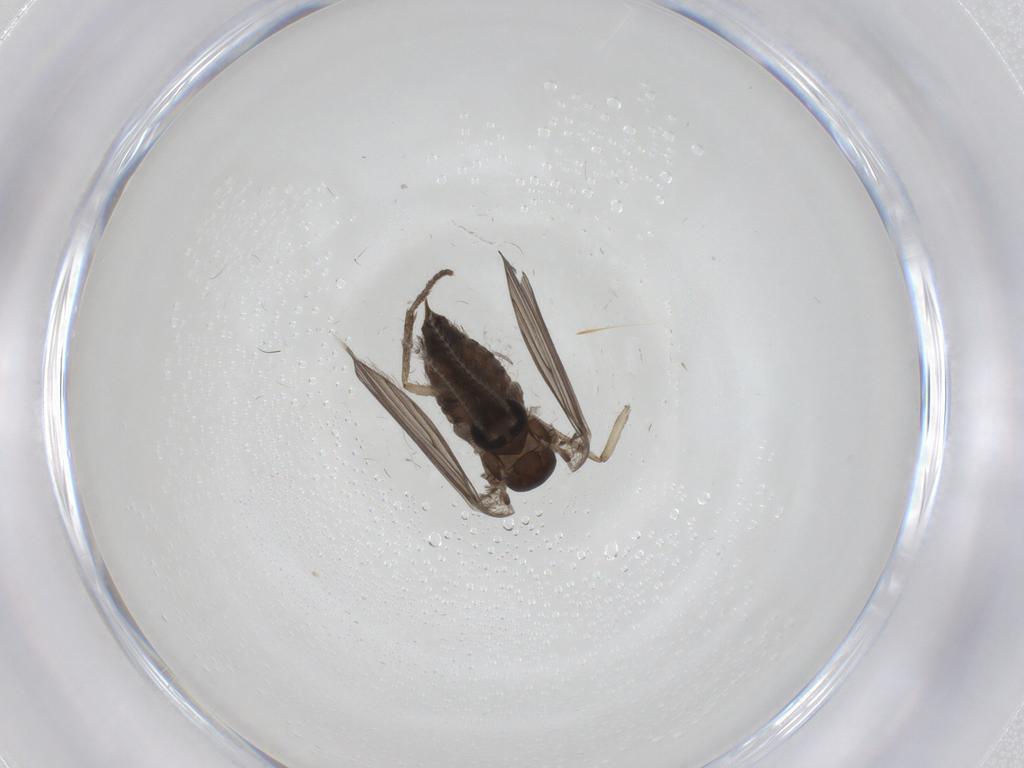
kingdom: Animalia
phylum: Arthropoda
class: Insecta
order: Diptera
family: Psychodidae
